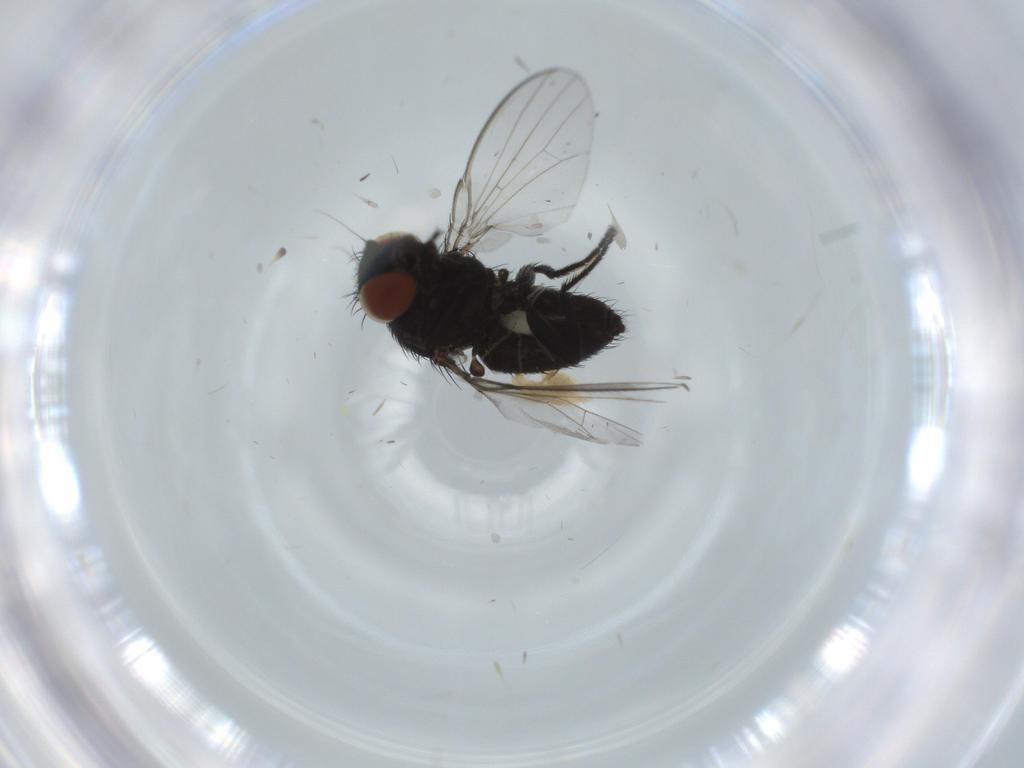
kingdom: Animalia
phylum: Arthropoda
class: Insecta
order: Diptera
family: Milichiidae
